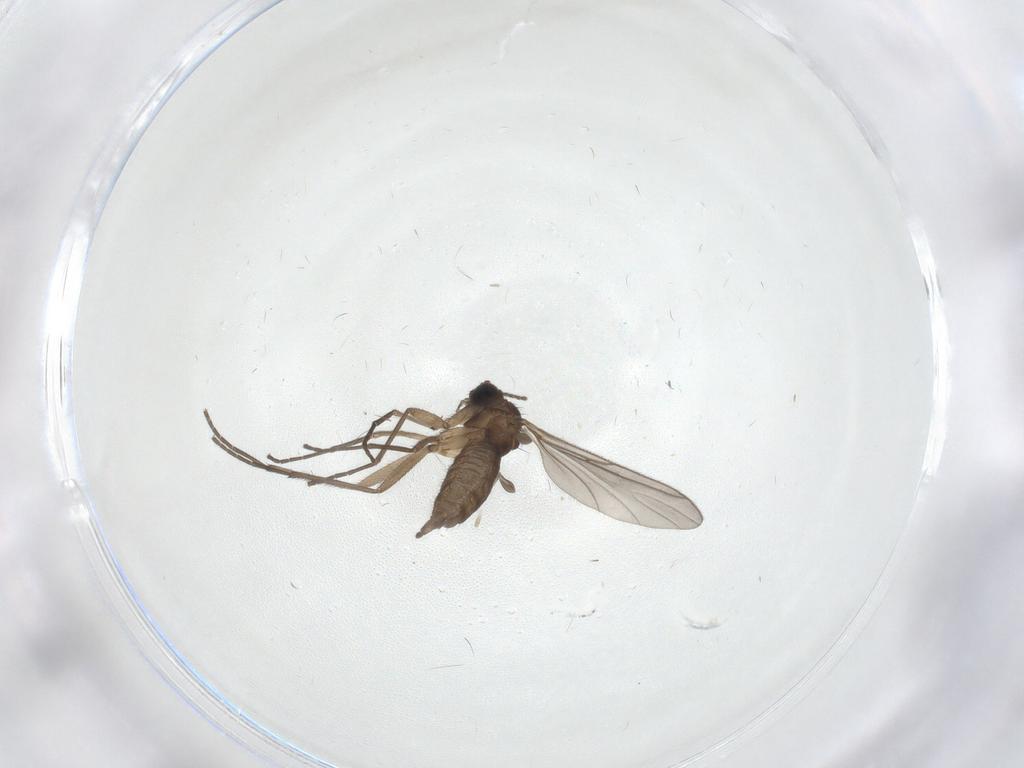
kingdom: Animalia
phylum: Arthropoda
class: Insecta
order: Diptera
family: Sciaridae
